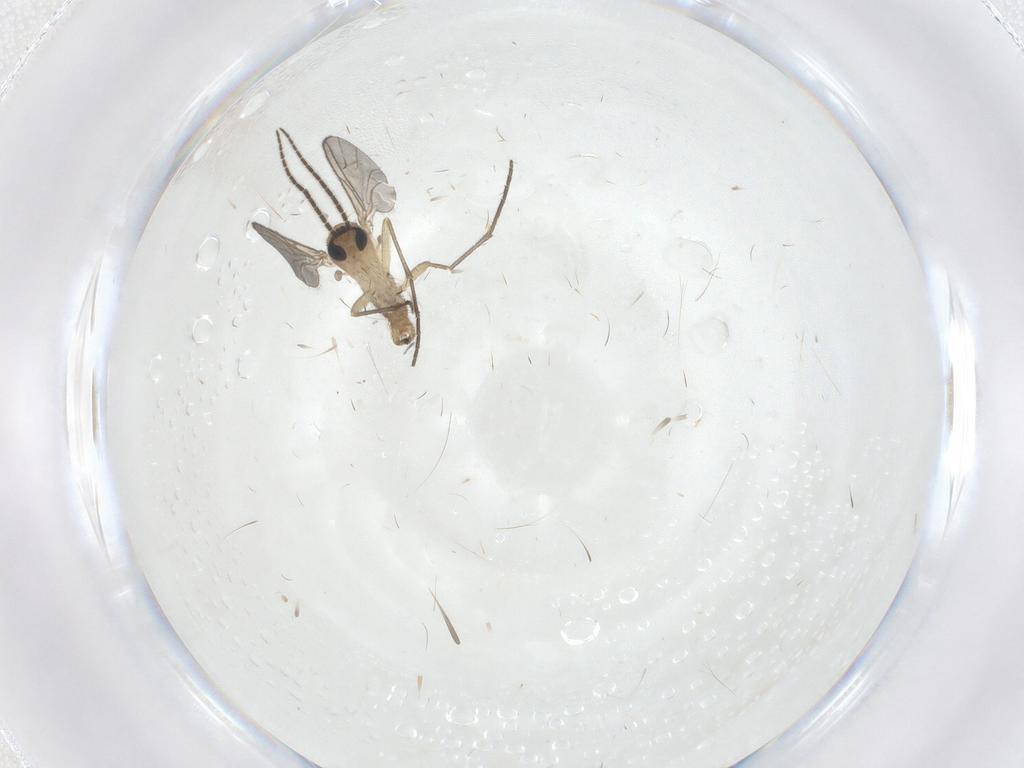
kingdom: Animalia
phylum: Arthropoda
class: Insecta
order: Diptera
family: Sciaridae
